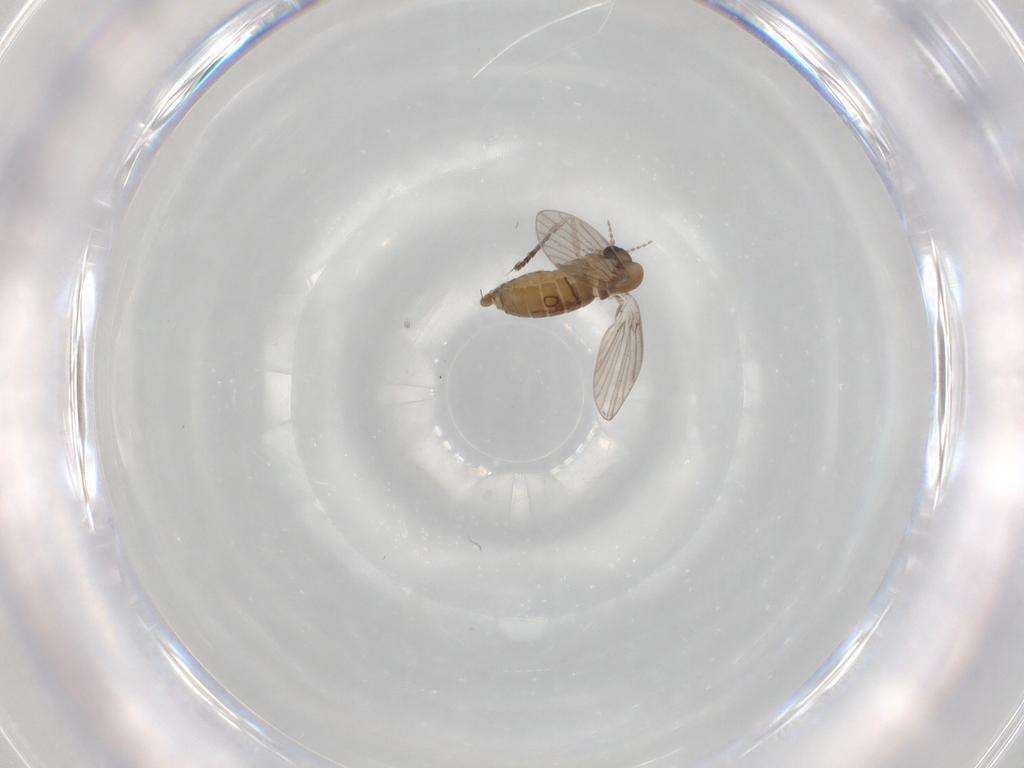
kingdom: Animalia
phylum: Arthropoda
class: Insecta
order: Diptera
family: Psychodidae
